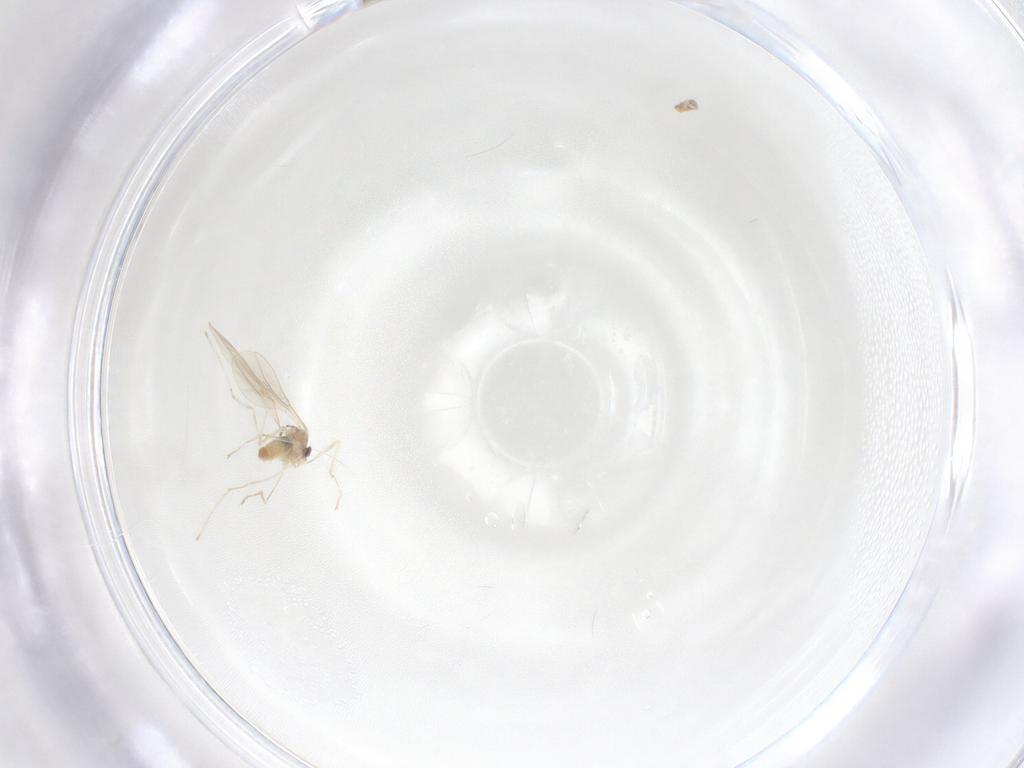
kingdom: Animalia
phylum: Arthropoda
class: Insecta
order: Diptera
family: Cecidomyiidae
